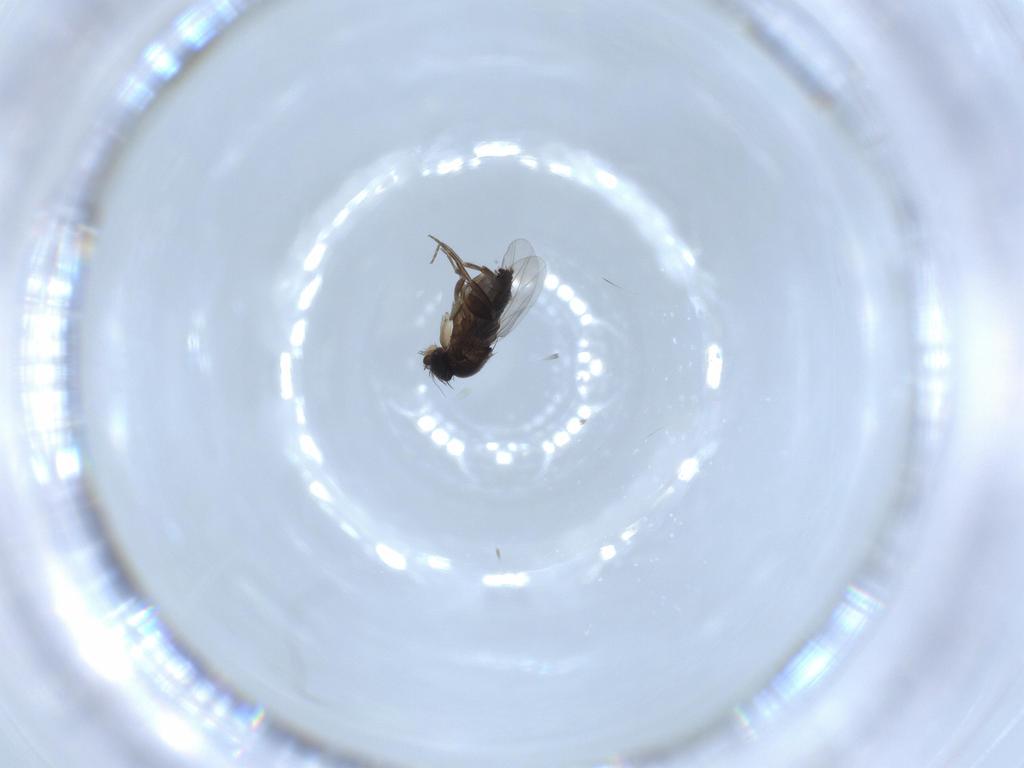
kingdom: Animalia
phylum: Arthropoda
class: Insecta
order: Diptera
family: Phoridae
